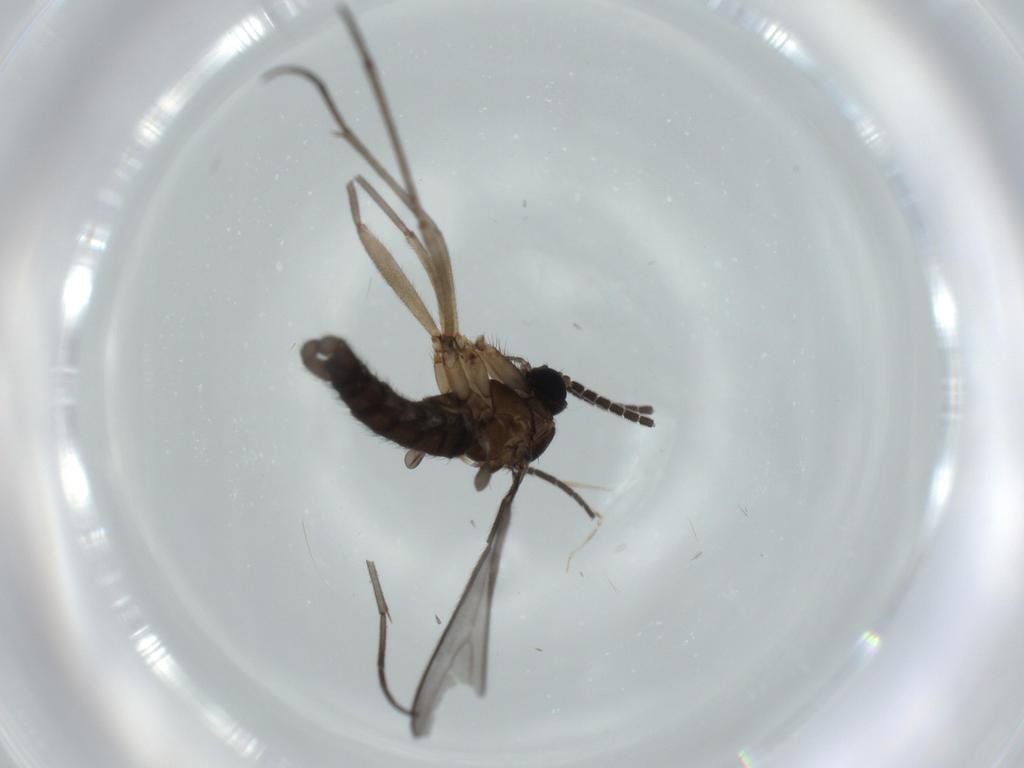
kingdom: Animalia
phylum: Arthropoda
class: Insecta
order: Diptera
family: Sciaridae
